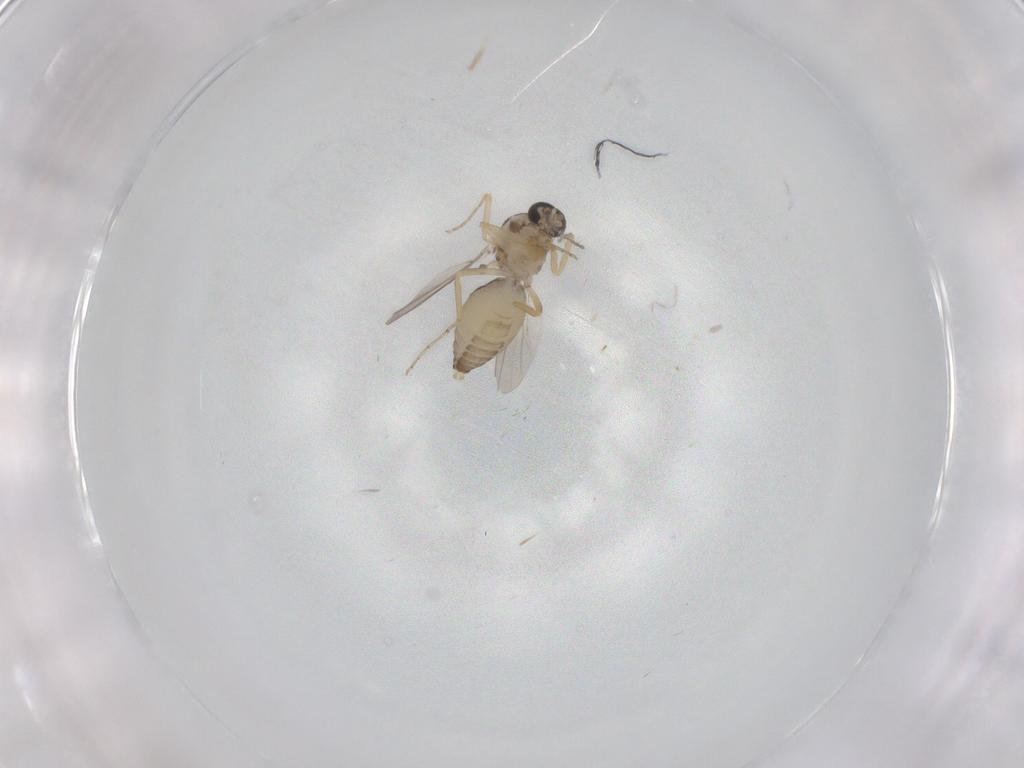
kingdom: Animalia
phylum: Arthropoda
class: Insecta
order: Diptera
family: Ceratopogonidae
